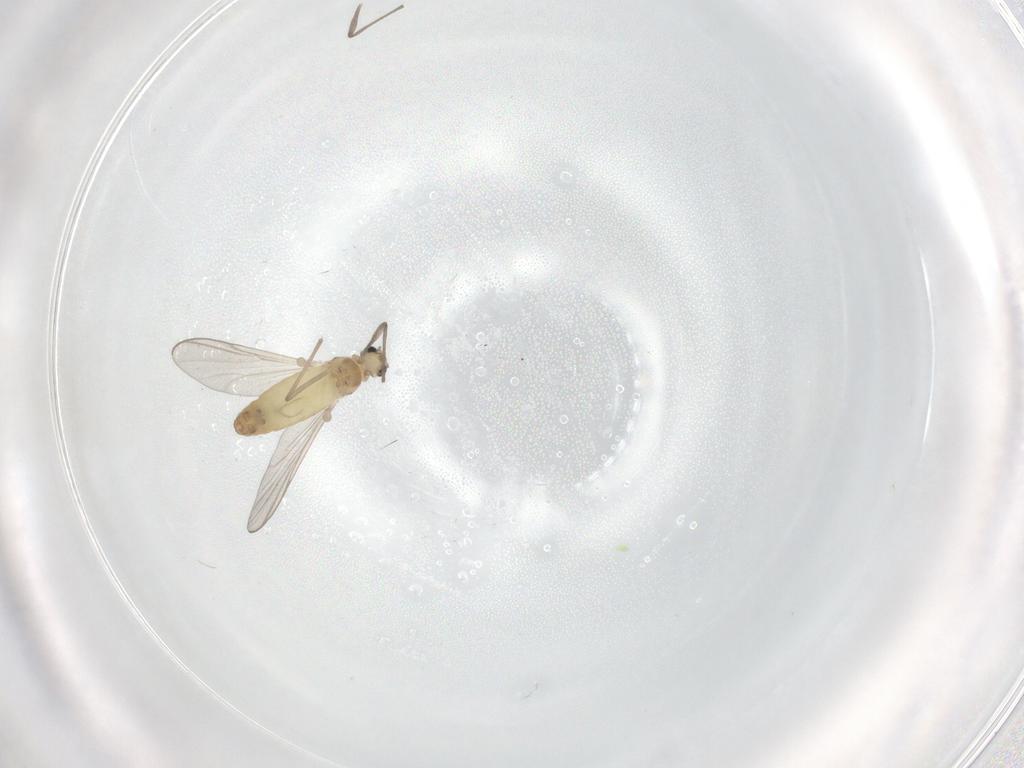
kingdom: Animalia
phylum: Arthropoda
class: Insecta
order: Diptera
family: Chironomidae
